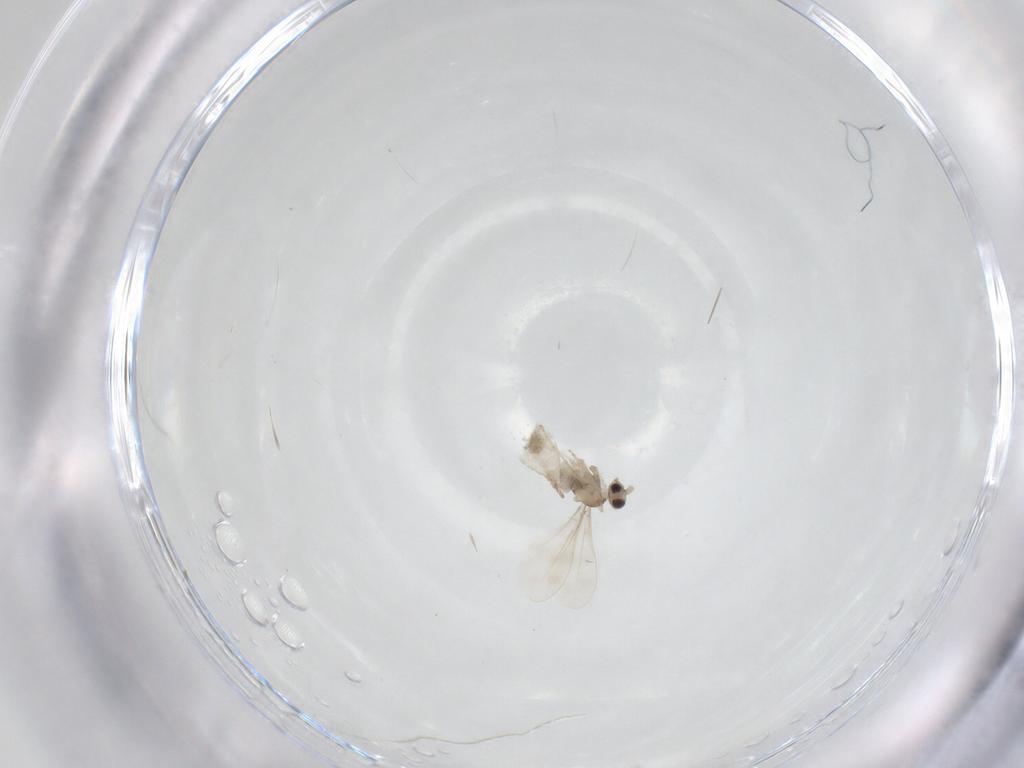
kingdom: Animalia
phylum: Arthropoda
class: Insecta
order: Diptera
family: Cecidomyiidae
